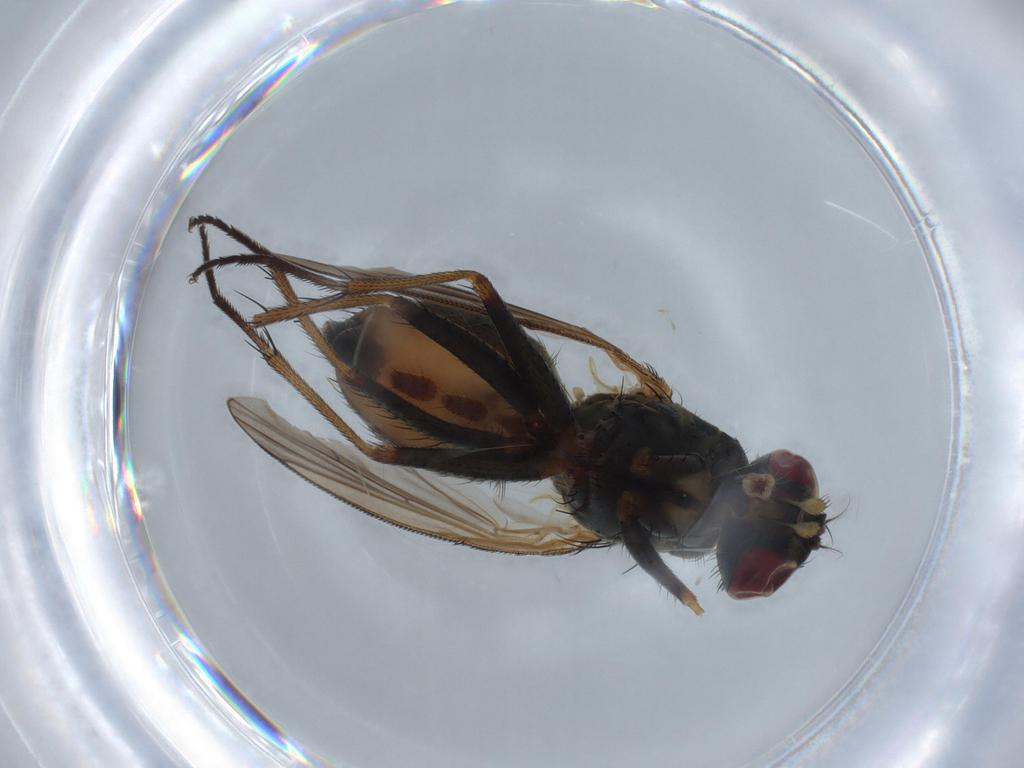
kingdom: Animalia
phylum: Arthropoda
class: Insecta
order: Diptera
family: Muscidae
